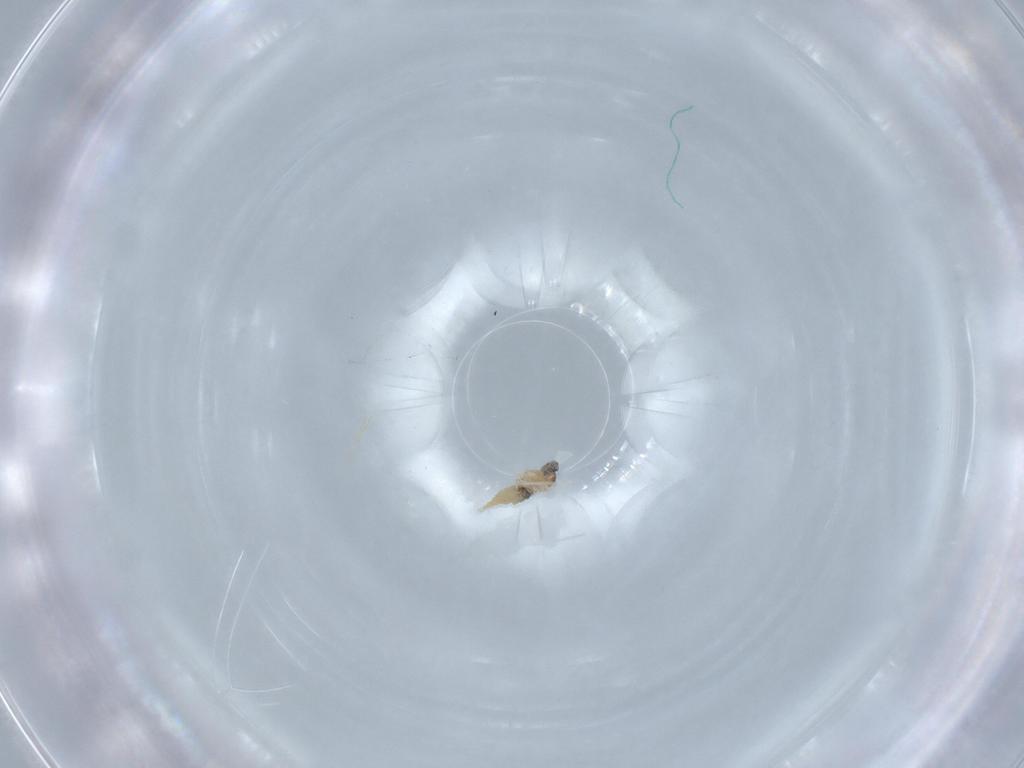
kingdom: Animalia
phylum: Arthropoda
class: Insecta
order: Diptera
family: Cecidomyiidae
